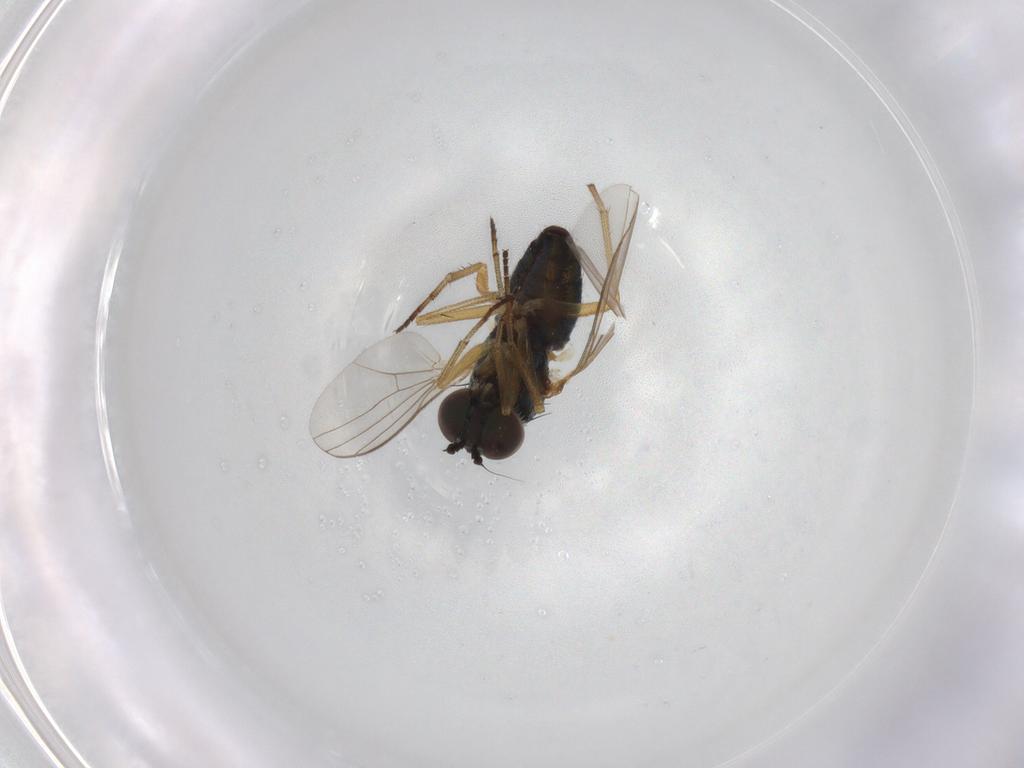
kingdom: Animalia
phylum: Arthropoda
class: Insecta
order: Diptera
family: Dolichopodidae
